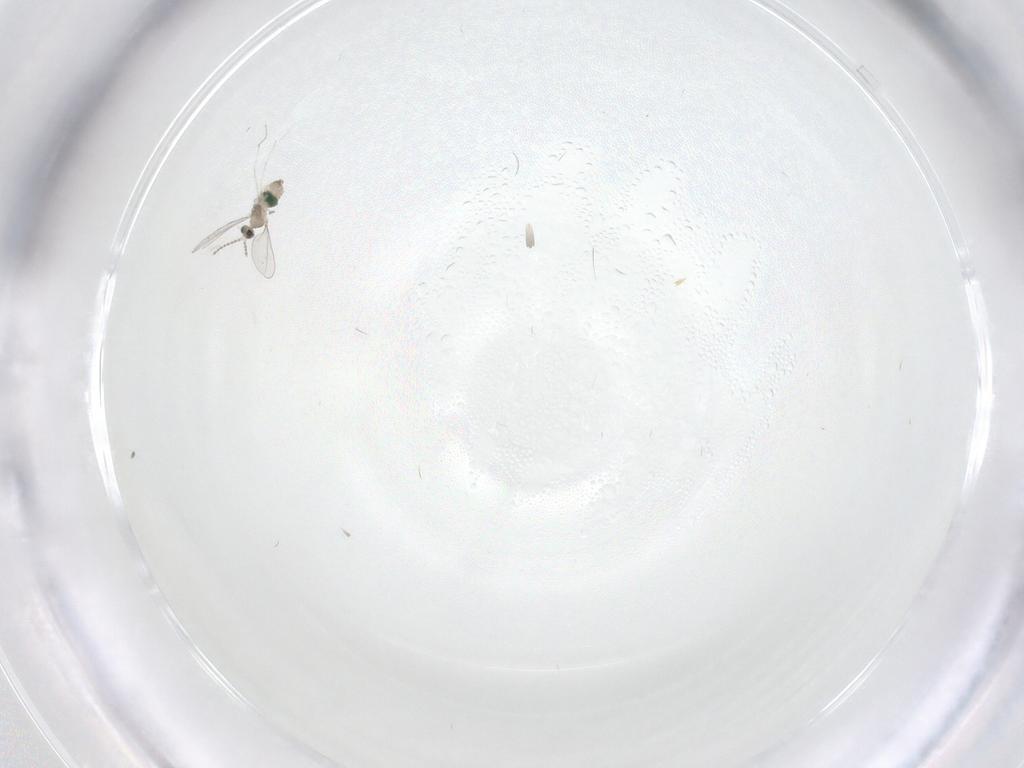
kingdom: Animalia
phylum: Arthropoda
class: Insecta
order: Diptera
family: Cecidomyiidae
